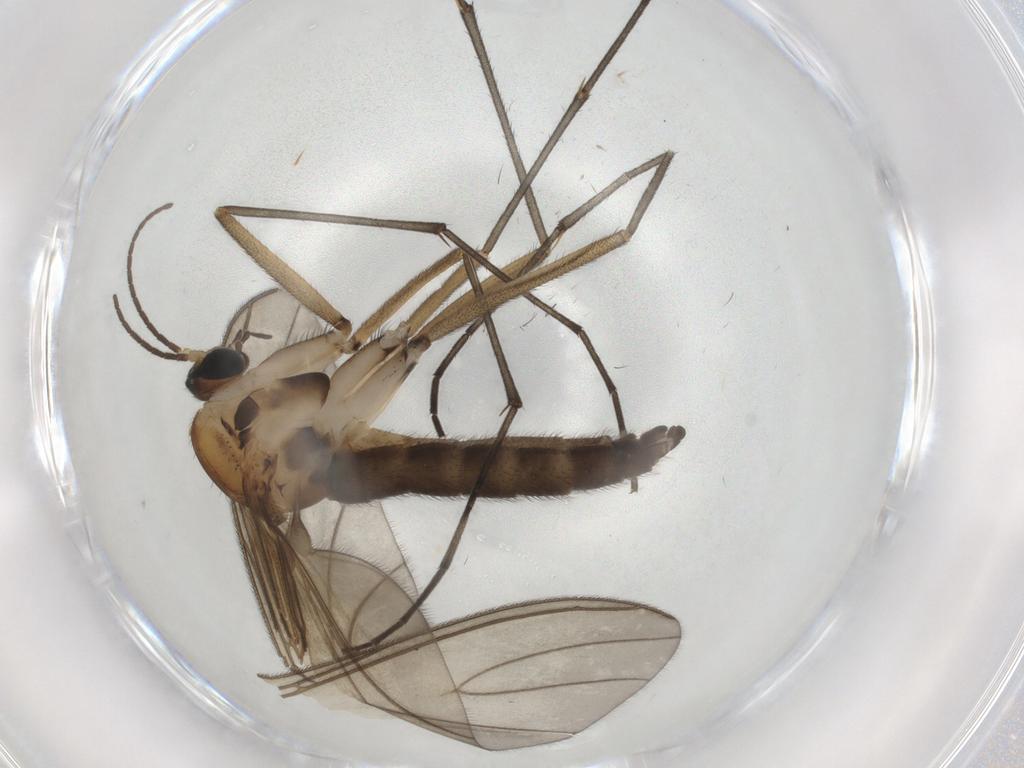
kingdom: Animalia
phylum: Arthropoda
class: Insecta
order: Diptera
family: Sciaridae
